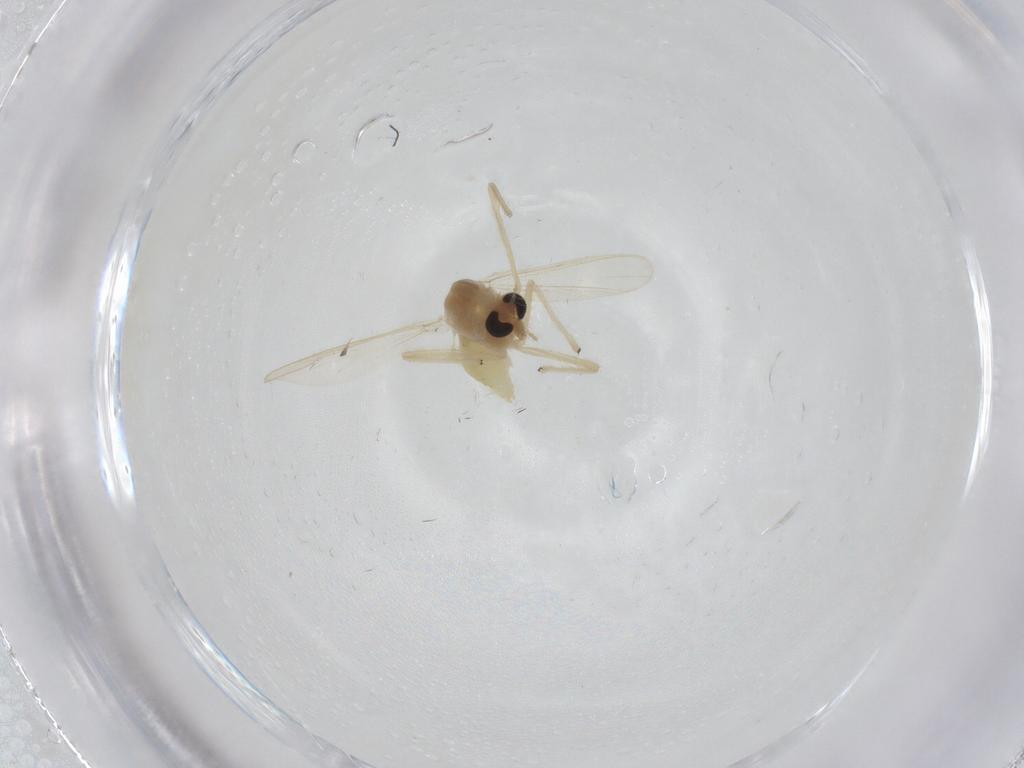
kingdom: Animalia
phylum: Arthropoda
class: Insecta
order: Diptera
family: Chironomidae
